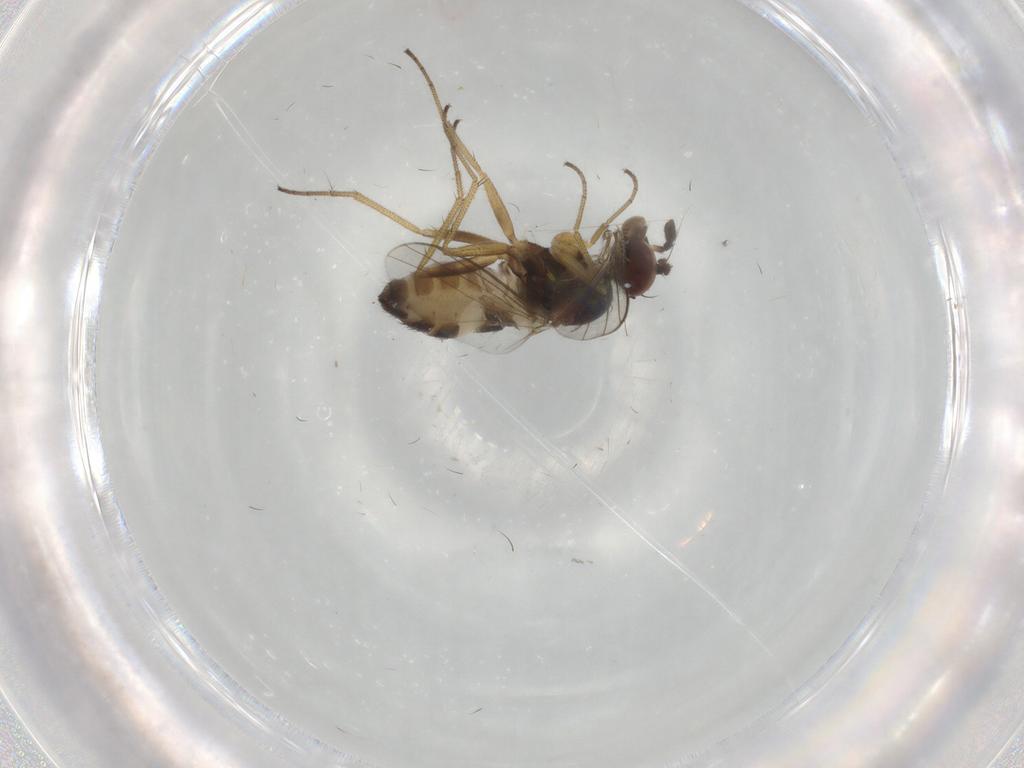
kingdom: Animalia
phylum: Arthropoda
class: Insecta
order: Diptera
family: Dolichopodidae
